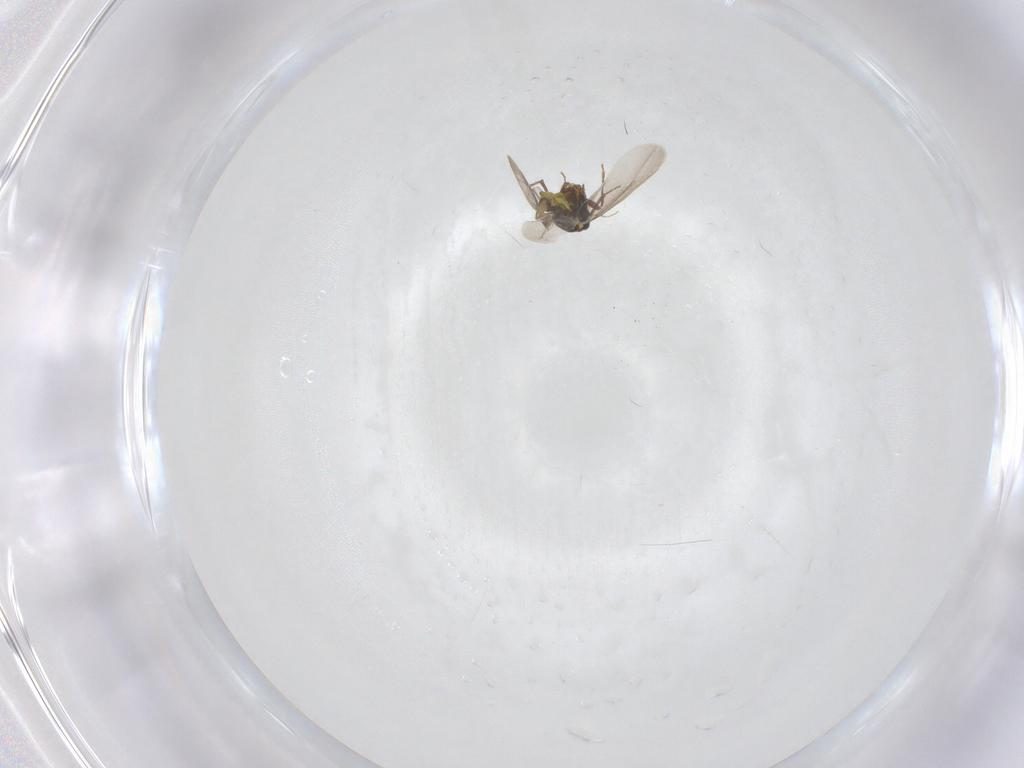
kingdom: Animalia
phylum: Arthropoda
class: Insecta
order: Hemiptera
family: Aleyrodidae
